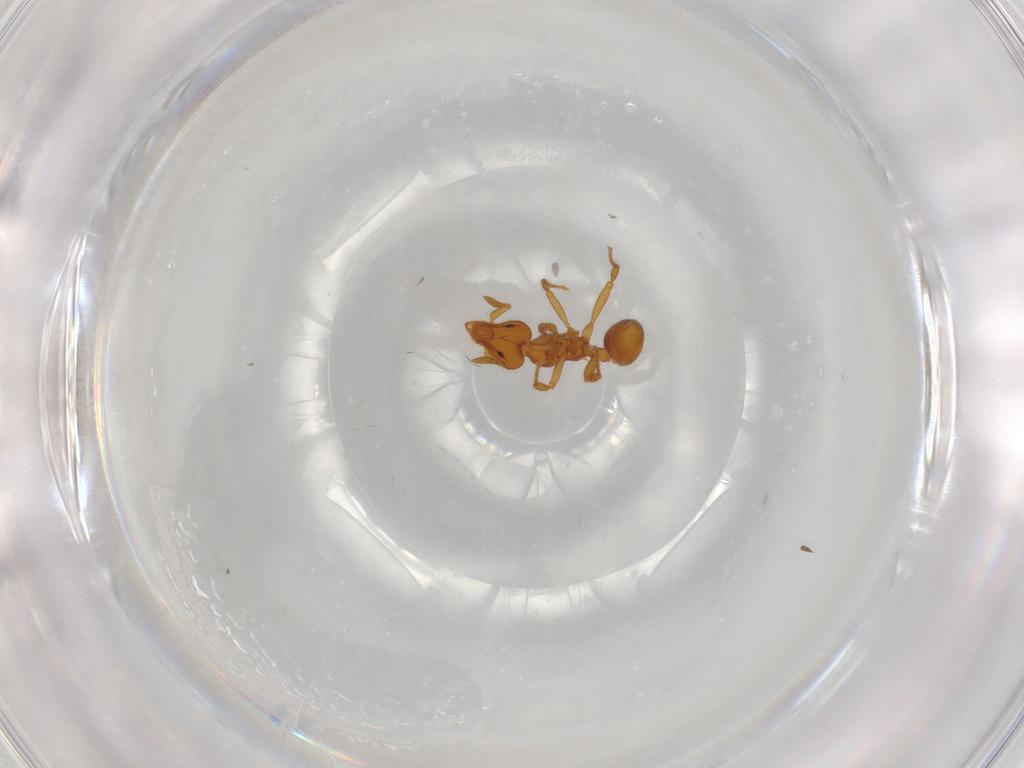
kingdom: Animalia
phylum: Arthropoda
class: Insecta
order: Hymenoptera
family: Formicidae
